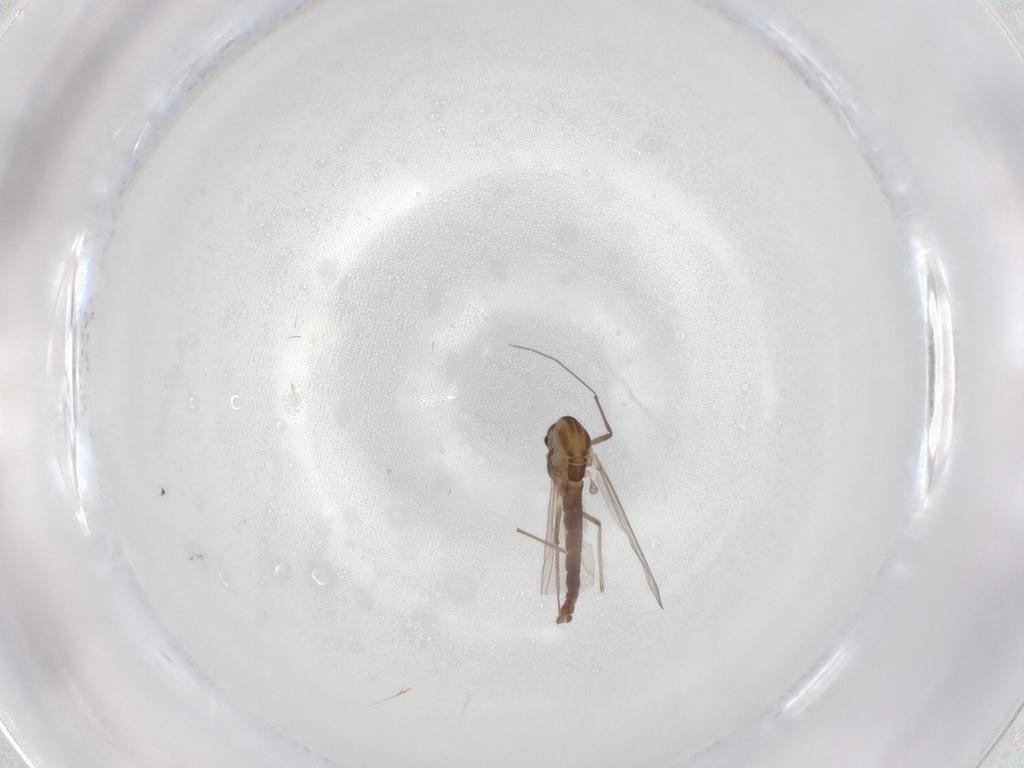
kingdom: Animalia
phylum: Arthropoda
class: Insecta
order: Diptera
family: Chironomidae
